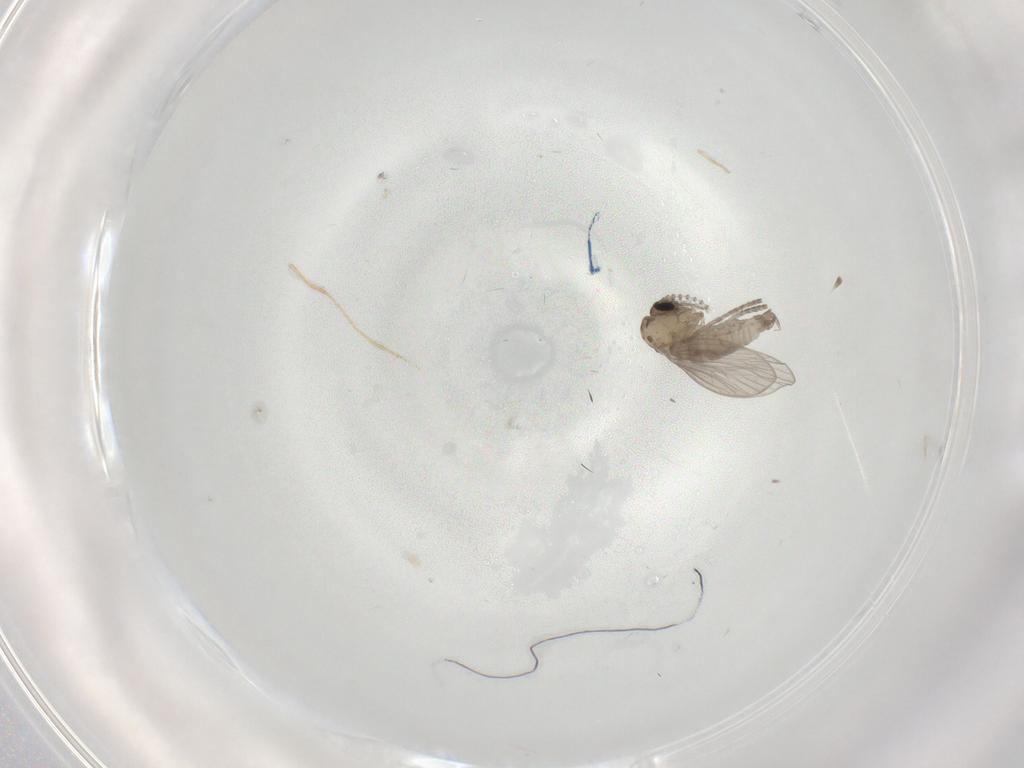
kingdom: Animalia
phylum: Arthropoda
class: Insecta
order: Diptera
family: Psychodidae
